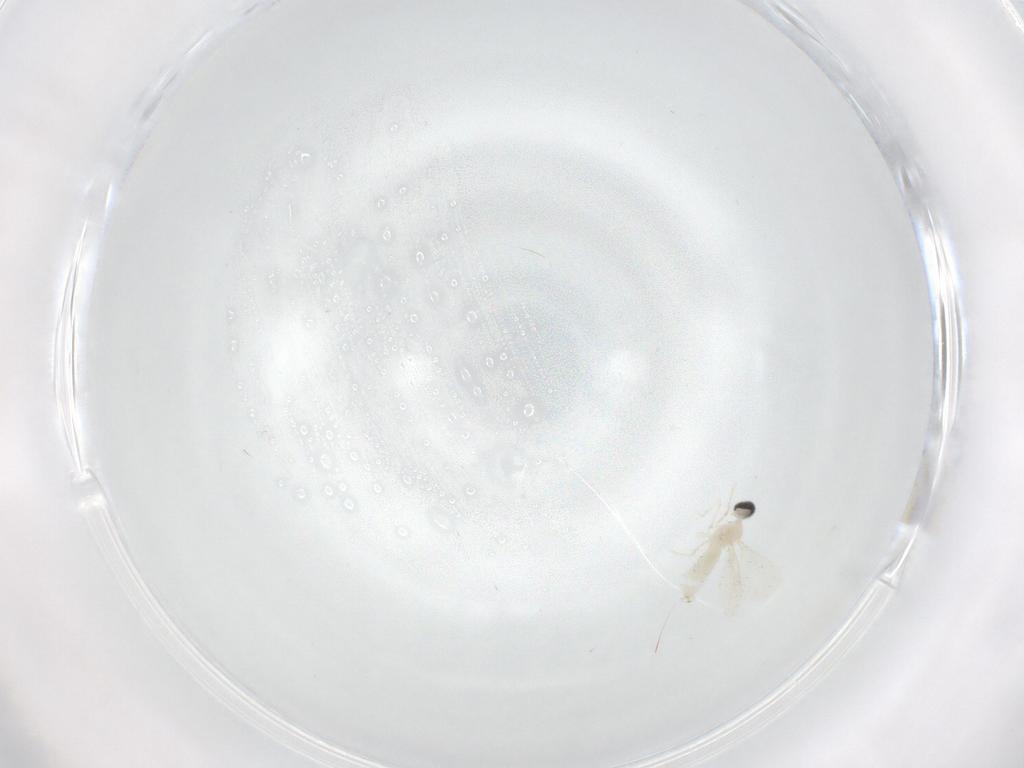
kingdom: Animalia
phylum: Arthropoda
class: Insecta
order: Diptera
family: Cecidomyiidae
